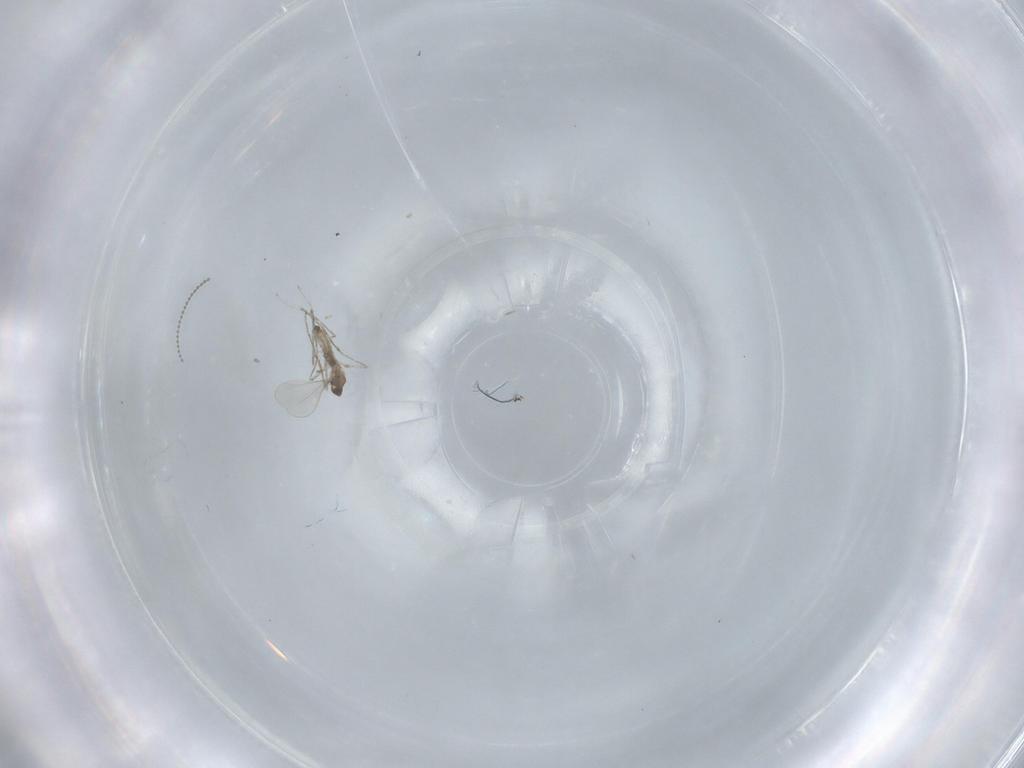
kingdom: Animalia
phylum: Arthropoda
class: Insecta
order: Diptera
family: Cecidomyiidae
